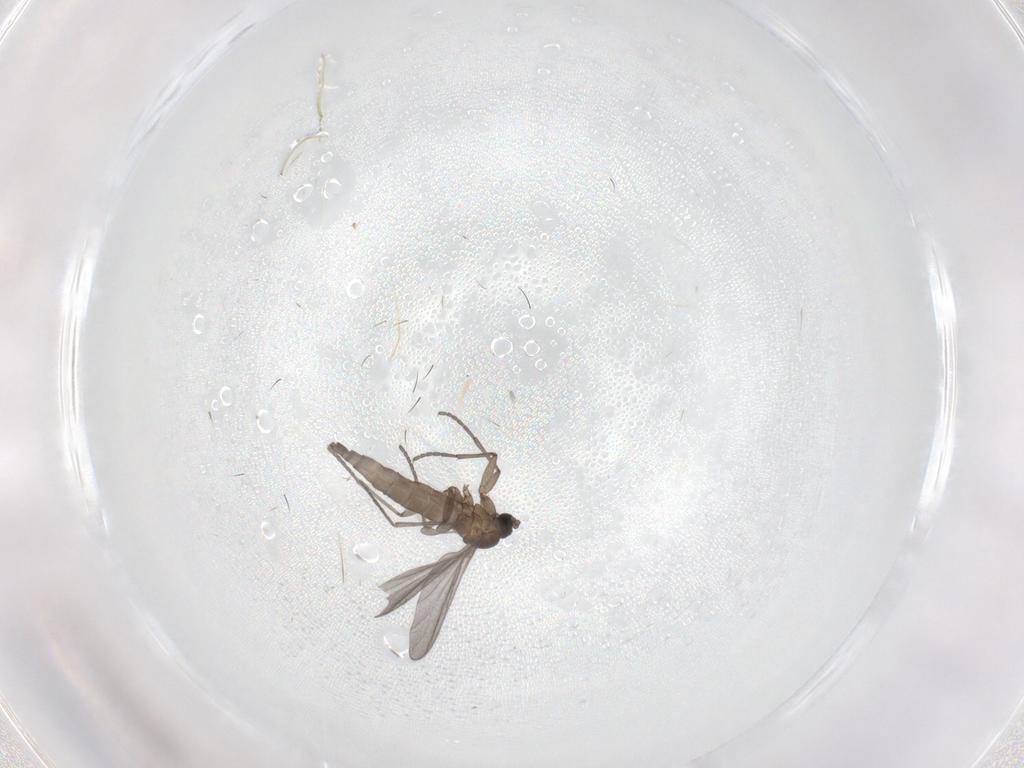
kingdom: Animalia
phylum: Arthropoda
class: Insecta
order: Diptera
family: Sciaridae
